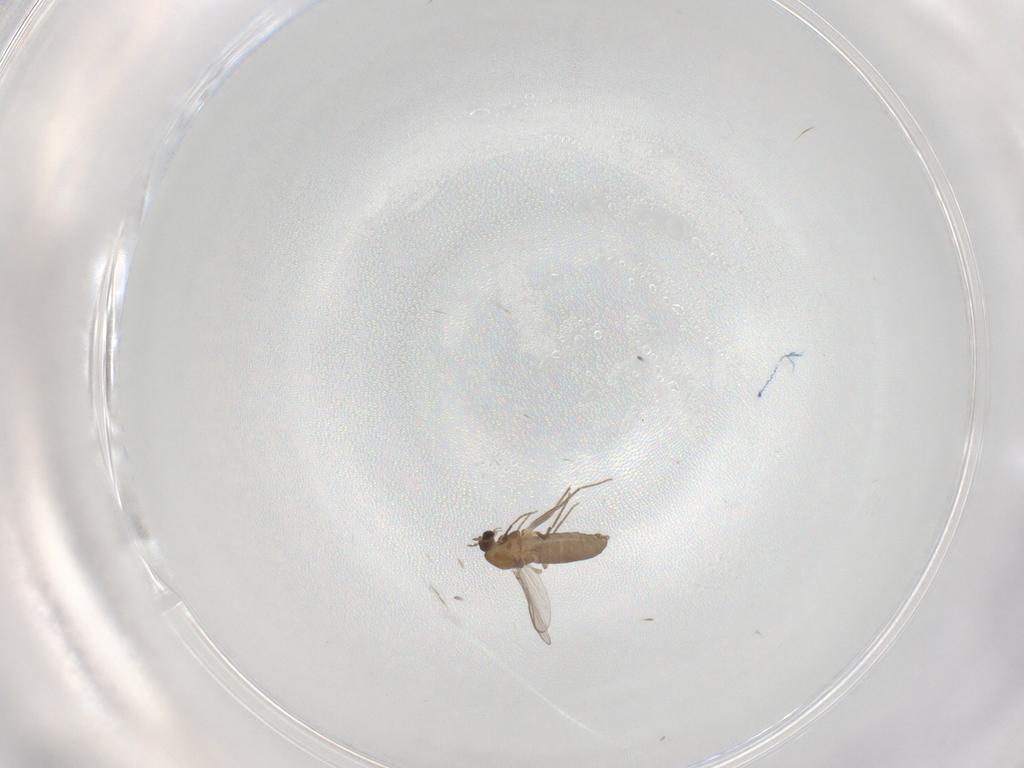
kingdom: Animalia
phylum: Arthropoda
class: Insecta
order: Diptera
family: Chironomidae
